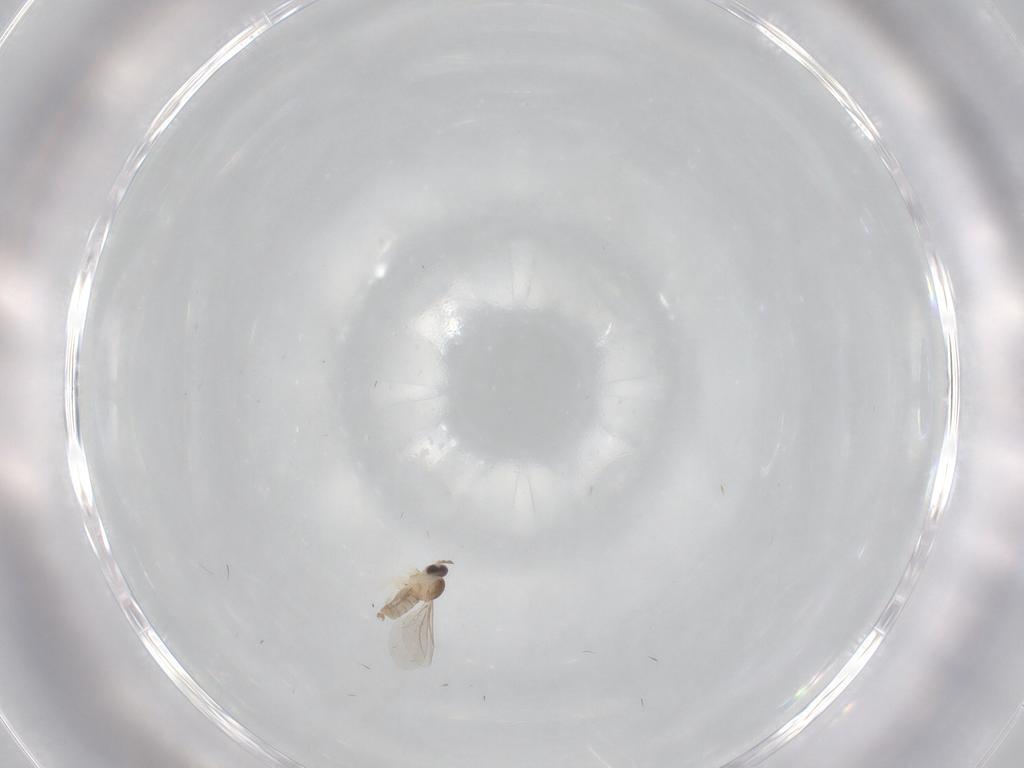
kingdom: Animalia
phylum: Arthropoda
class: Insecta
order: Diptera
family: Cecidomyiidae
